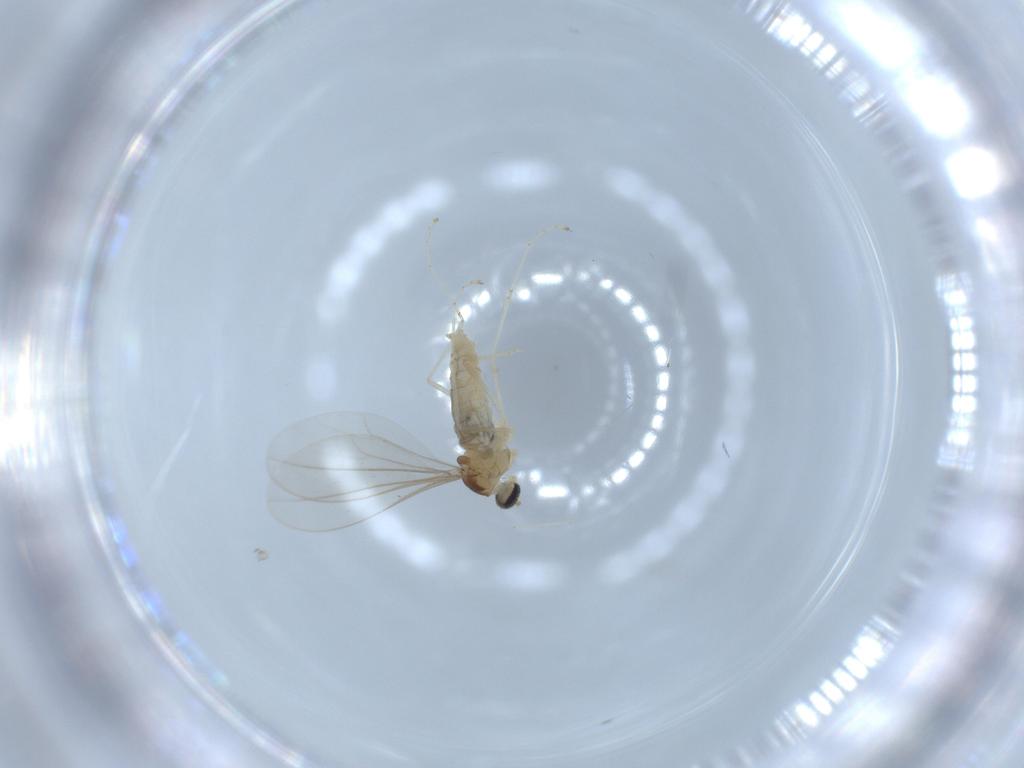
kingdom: Animalia
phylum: Arthropoda
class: Insecta
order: Diptera
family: Cecidomyiidae
